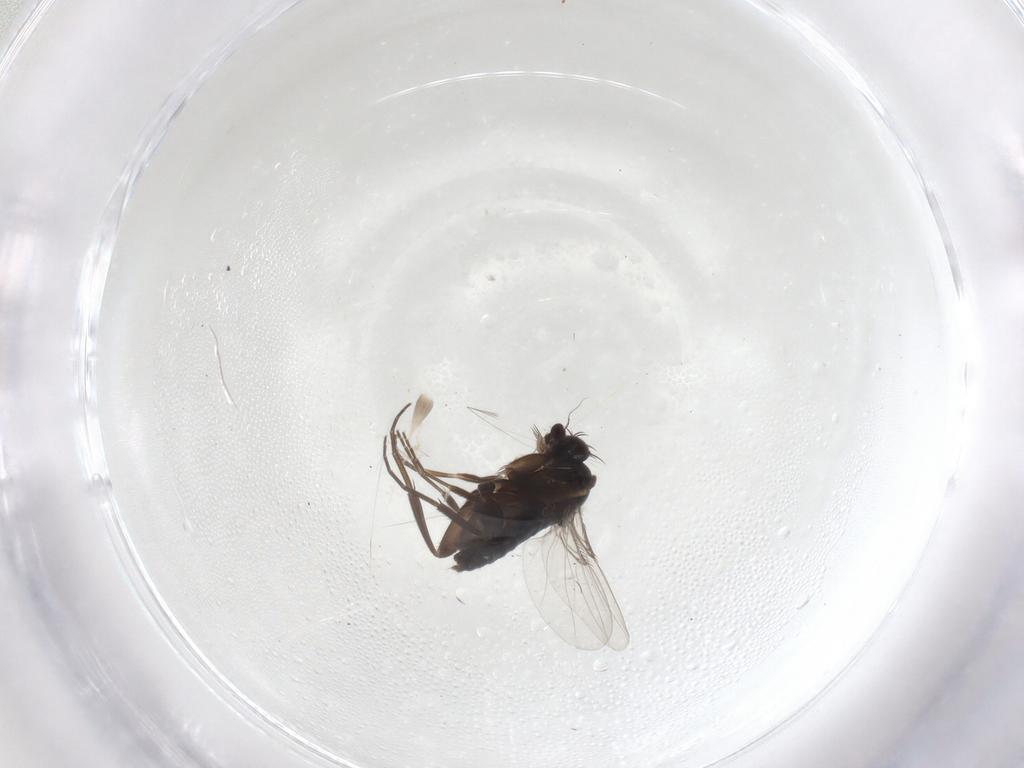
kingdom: Animalia
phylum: Arthropoda
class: Insecta
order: Diptera
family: Phoridae
